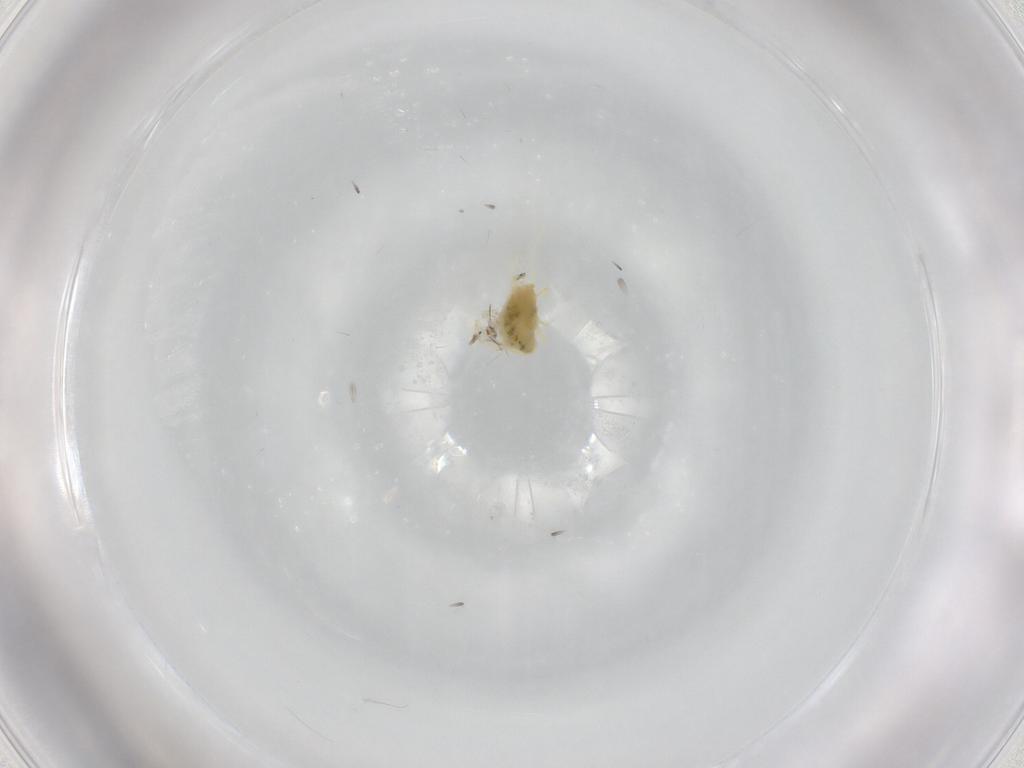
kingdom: Animalia
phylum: Arthropoda
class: Arachnida
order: Trombidiformes
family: Tetranychidae
